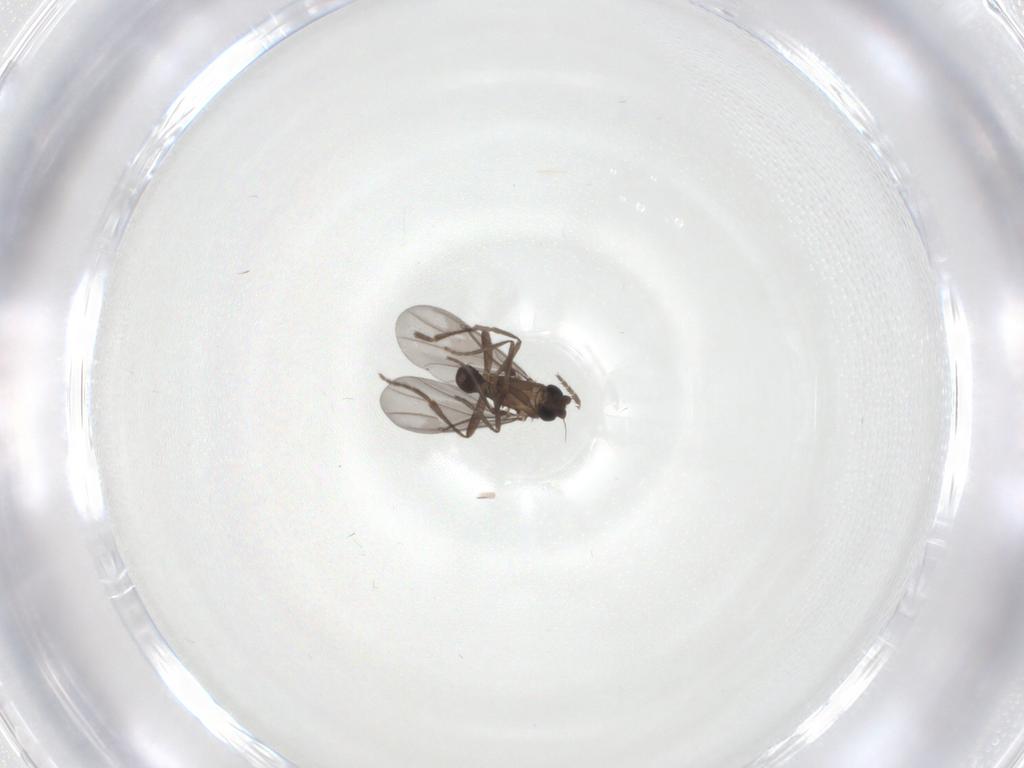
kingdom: Animalia
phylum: Arthropoda
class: Insecta
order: Diptera
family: Phoridae
